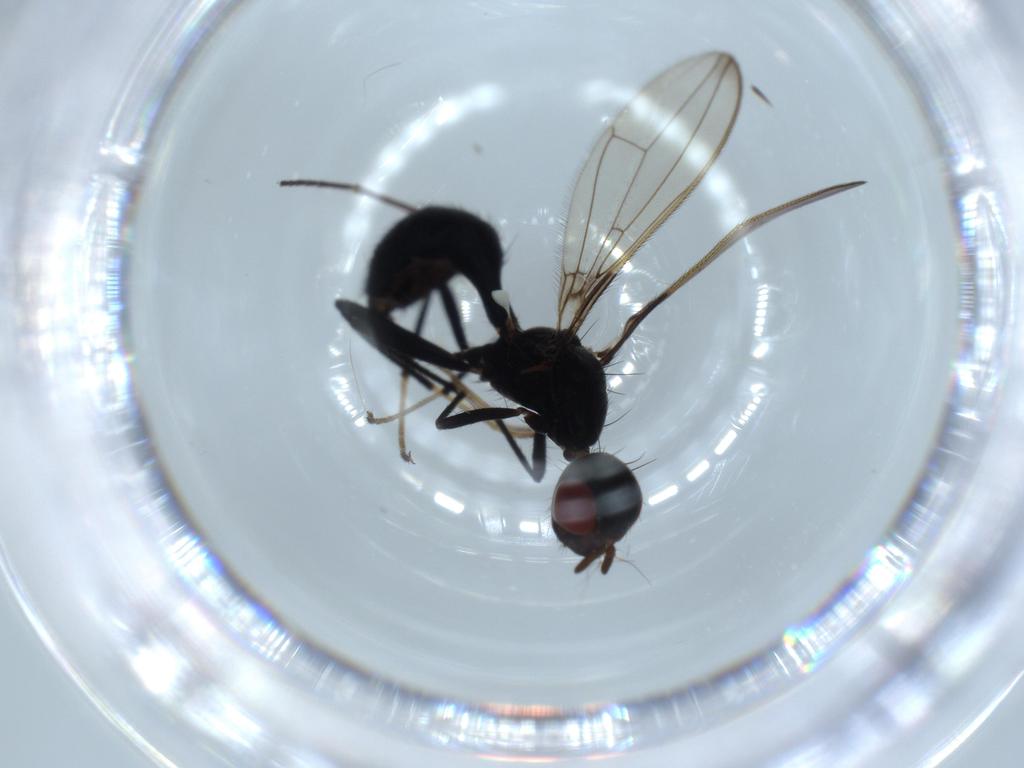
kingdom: Animalia
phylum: Arthropoda
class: Insecta
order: Diptera
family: Richardiidae
